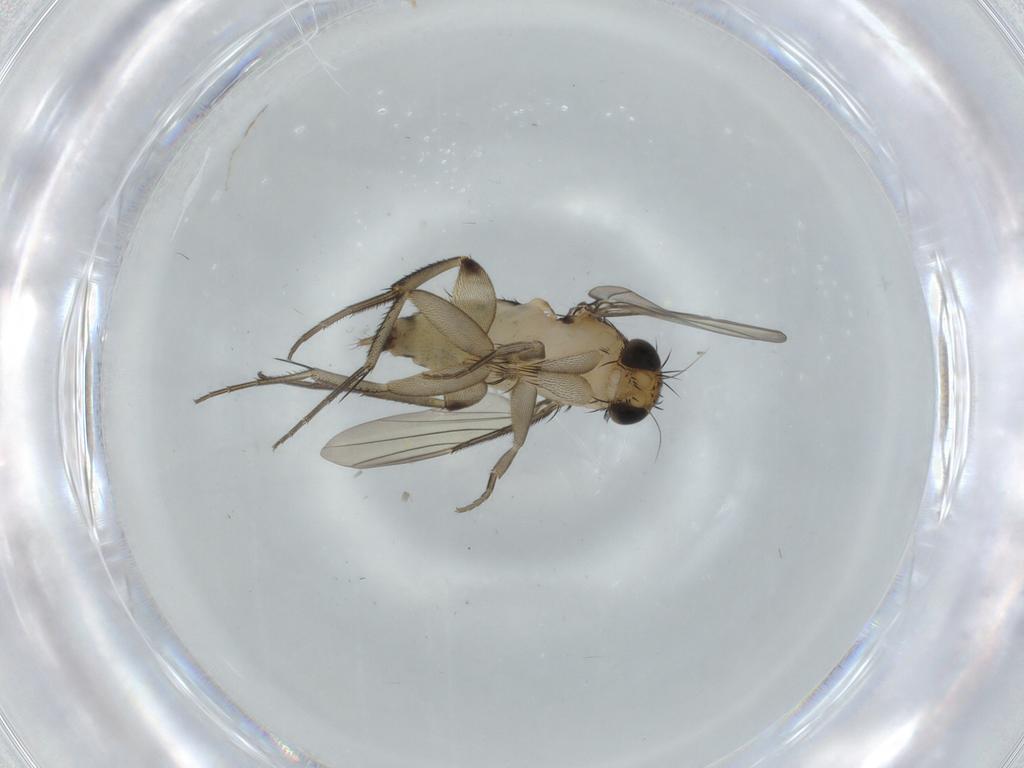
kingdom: Animalia
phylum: Arthropoda
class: Insecta
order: Diptera
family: Phoridae
